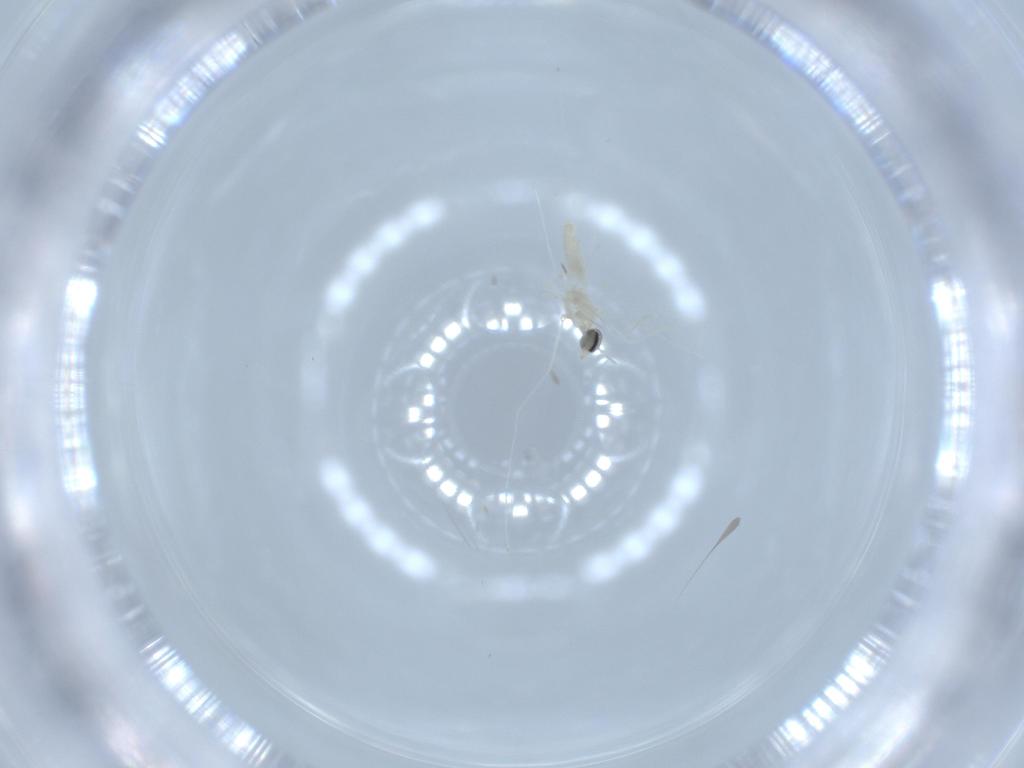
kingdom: Animalia
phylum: Arthropoda
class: Insecta
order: Diptera
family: Cecidomyiidae
